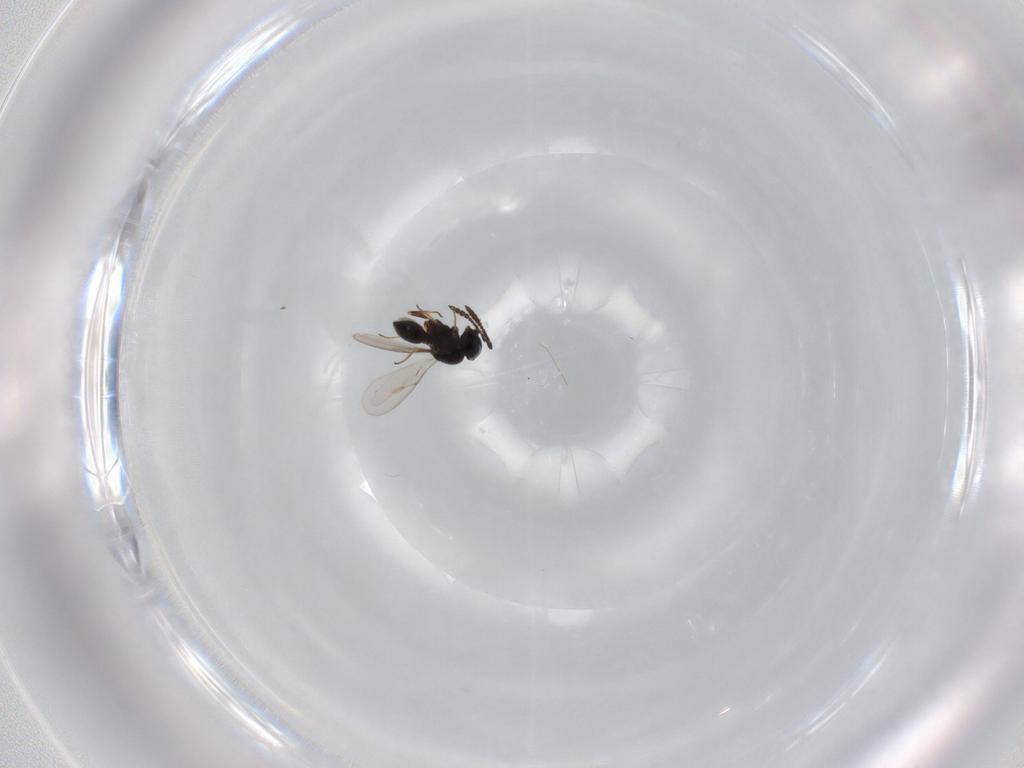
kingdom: Animalia
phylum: Arthropoda
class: Insecta
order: Hymenoptera
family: Scelionidae
